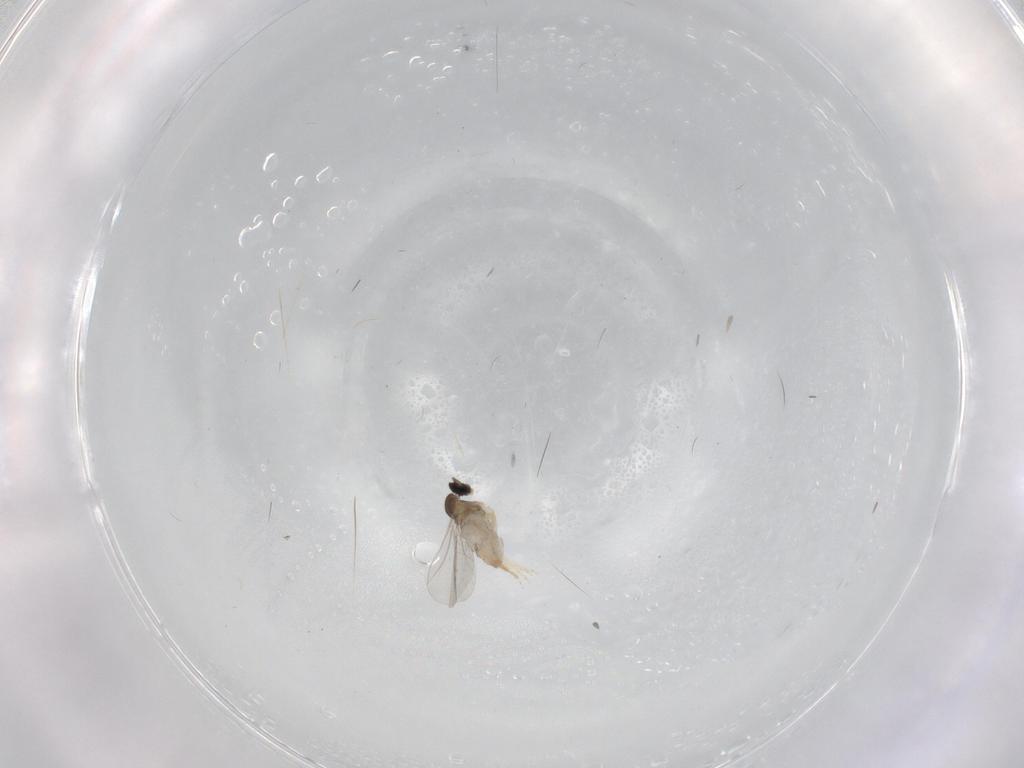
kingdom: Animalia
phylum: Arthropoda
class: Insecta
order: Diptera
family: Cecidomyiidae
